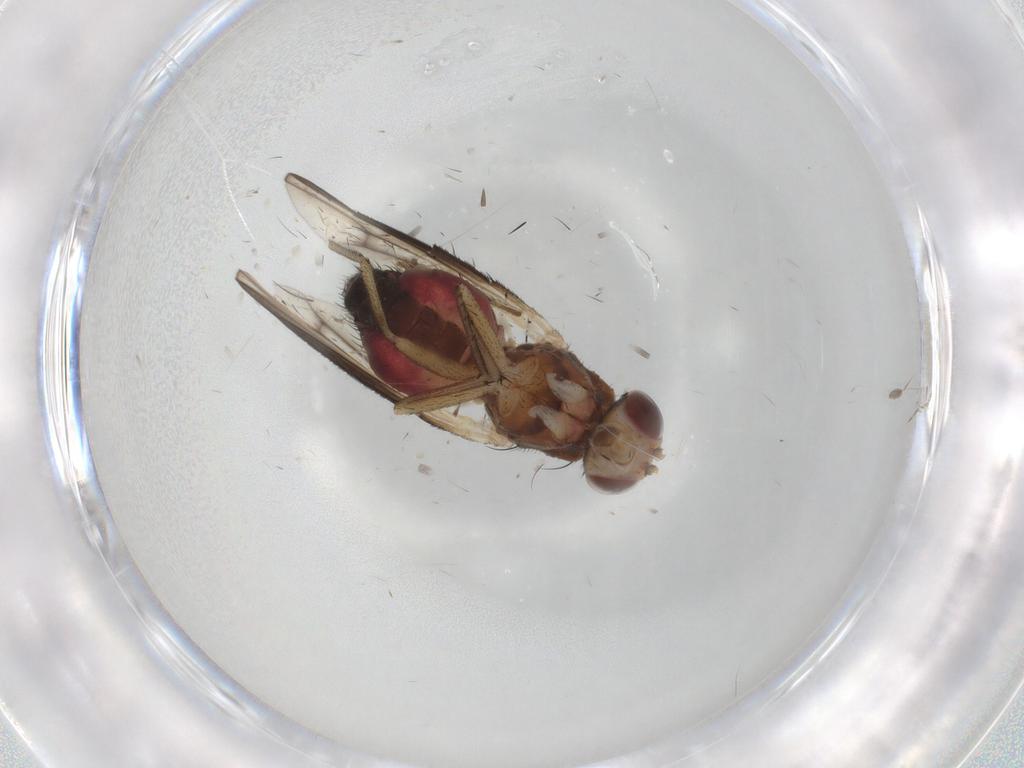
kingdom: Animalia
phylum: Arthropoda
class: Insecta
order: Diptera
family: Heleomyzidae
